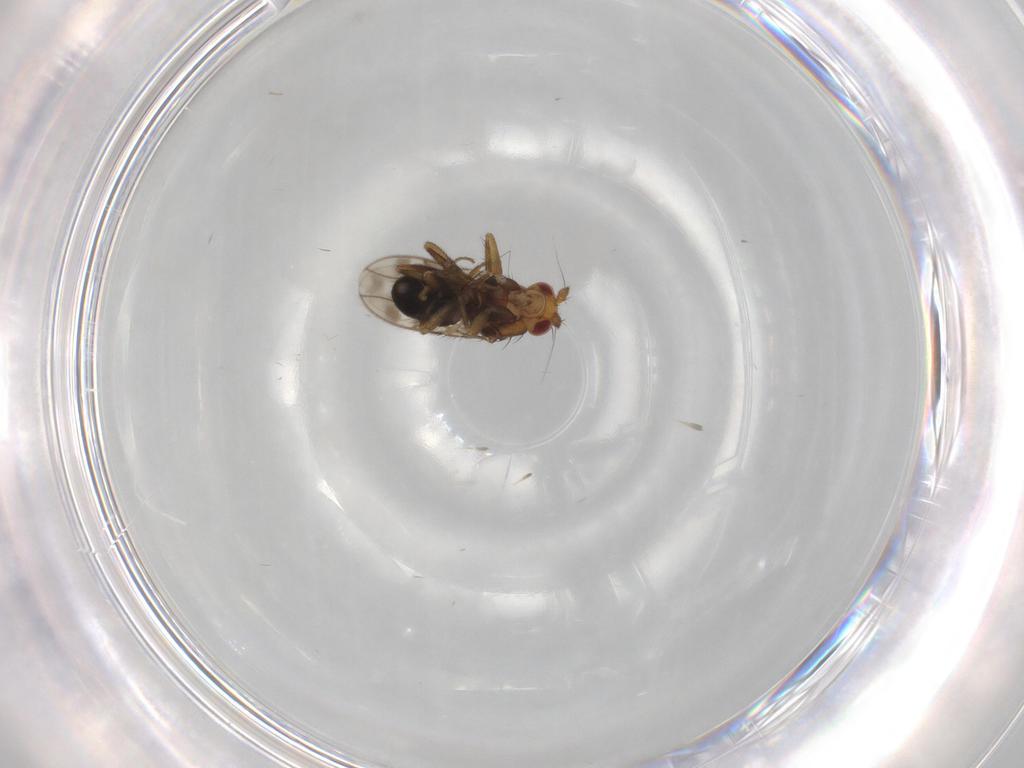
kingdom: Animalia
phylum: Arthropoda
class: Insecta
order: Diptera
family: Sphaeroceridae
